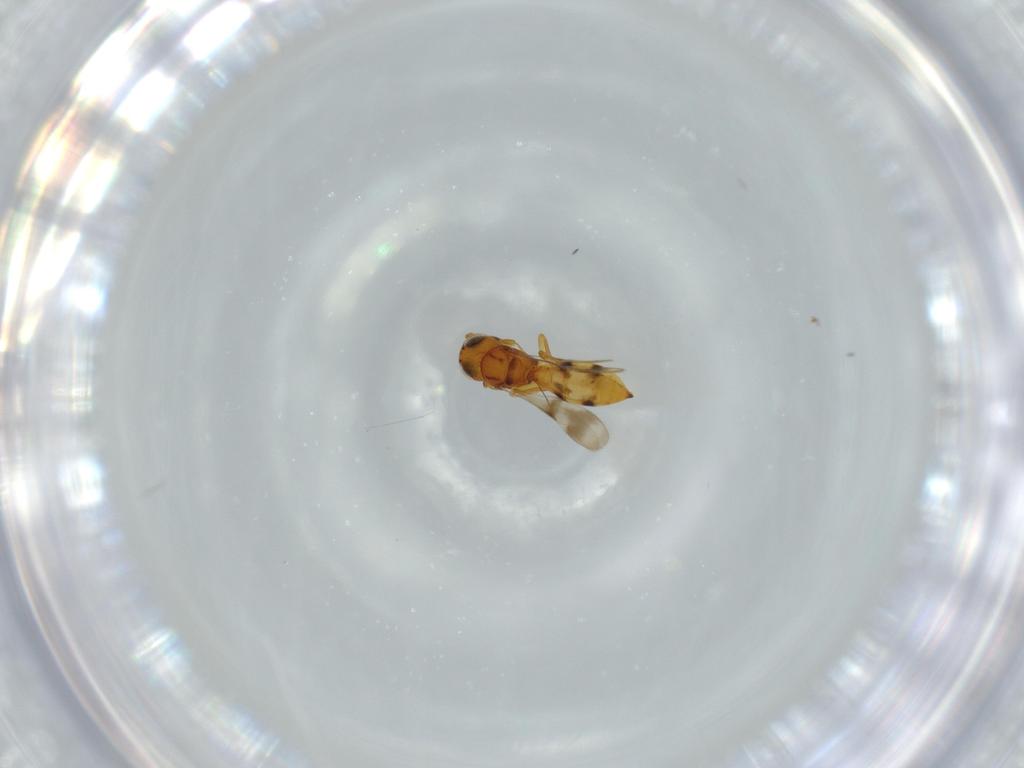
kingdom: Animalia
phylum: Arthropoda
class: Insecta
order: Hymenoptera
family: Scelionidae
